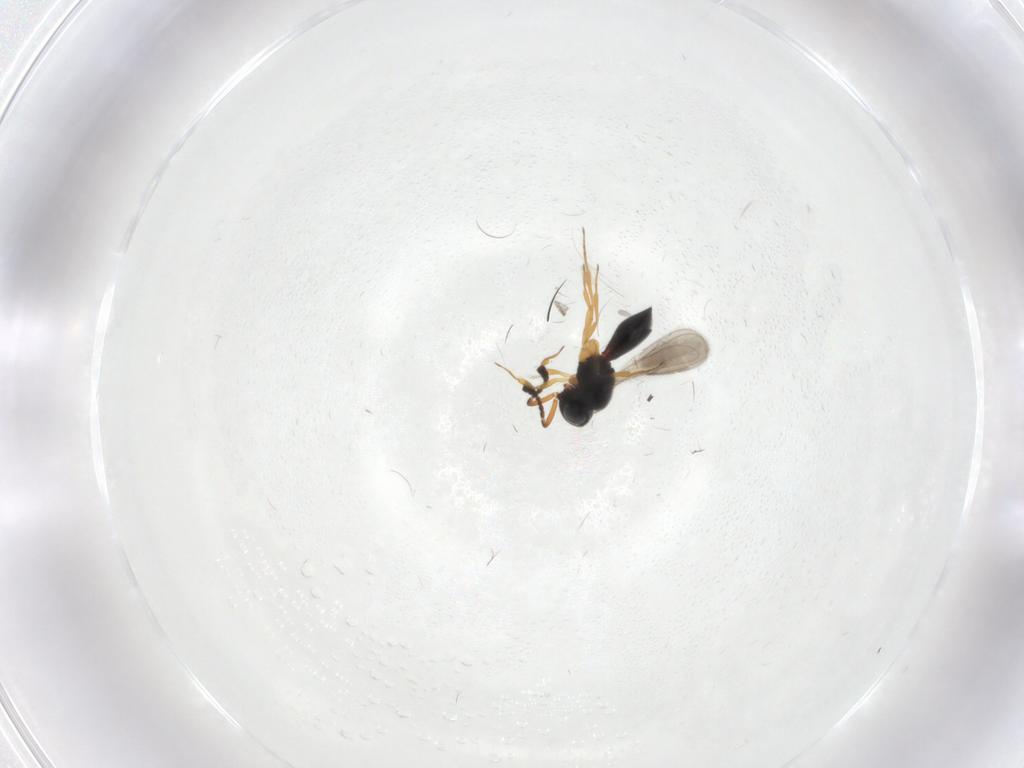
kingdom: Animalia
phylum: Arthropoda
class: Insecta
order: Hymenoptera
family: Scelionidae
